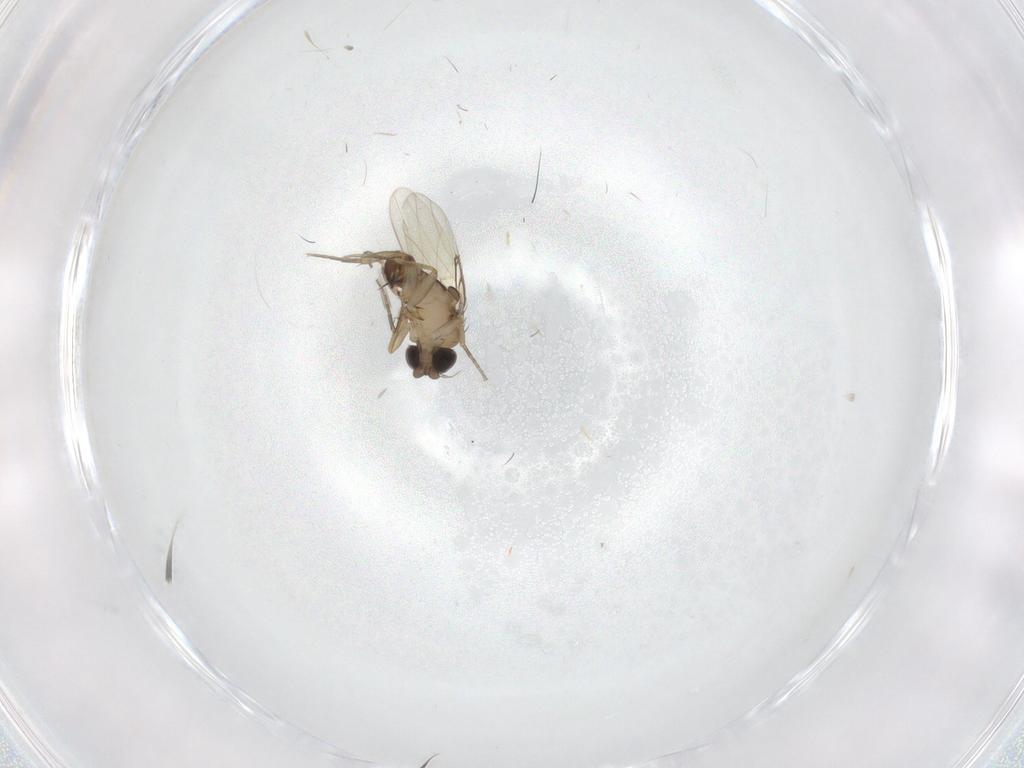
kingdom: Animalia
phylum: Arthropoda
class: Insecta
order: Diptera
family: Phoridae
